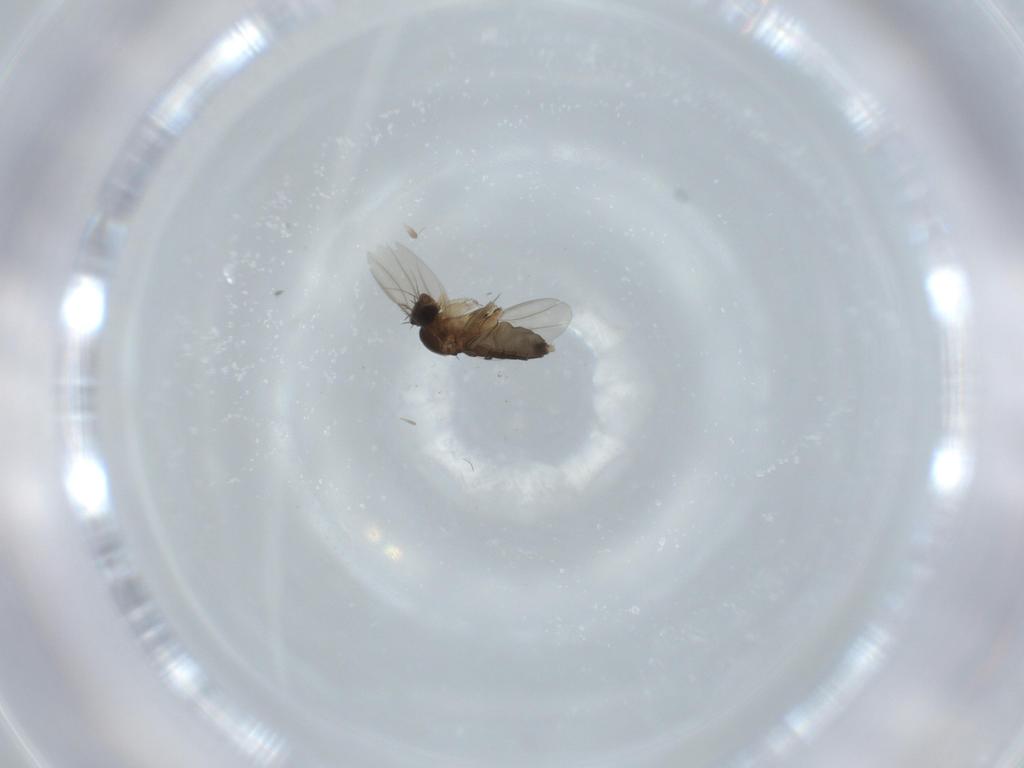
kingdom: Animalia
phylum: Arthropoda
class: Insecta
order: Diptera
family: Phoridae
